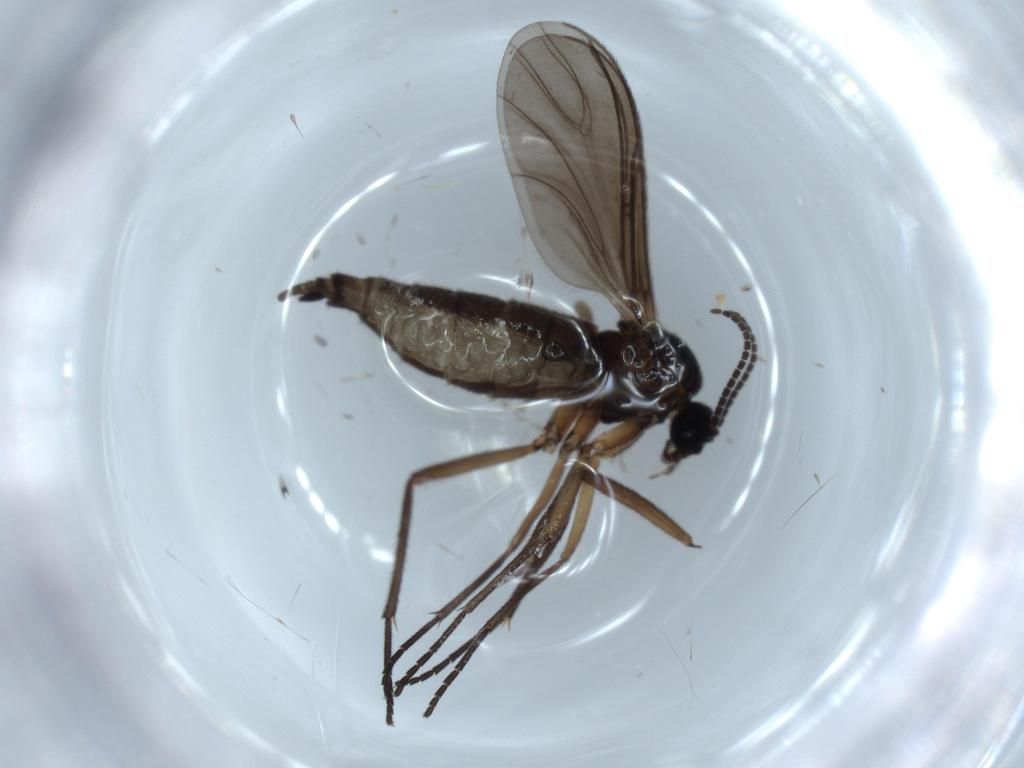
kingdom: Animalia
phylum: Arthropoda
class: Insecta
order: Diptera
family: Sciaridae
